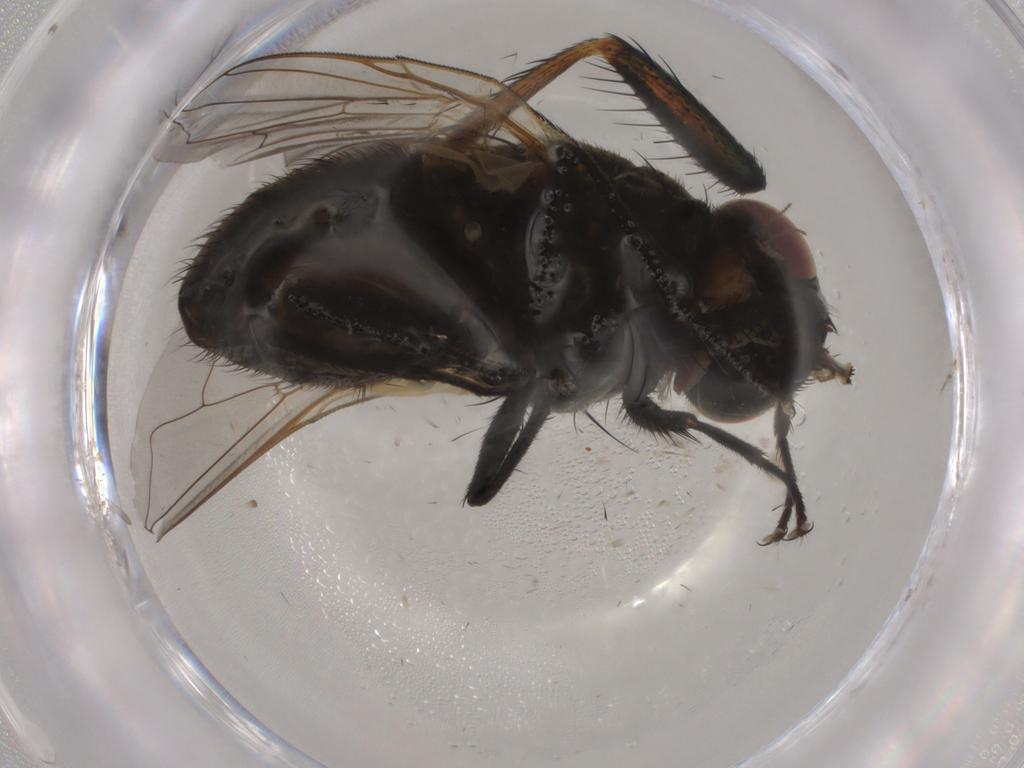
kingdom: Animalia
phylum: Arthropoda
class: Insecta
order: Diptera
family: Calliphoridae
